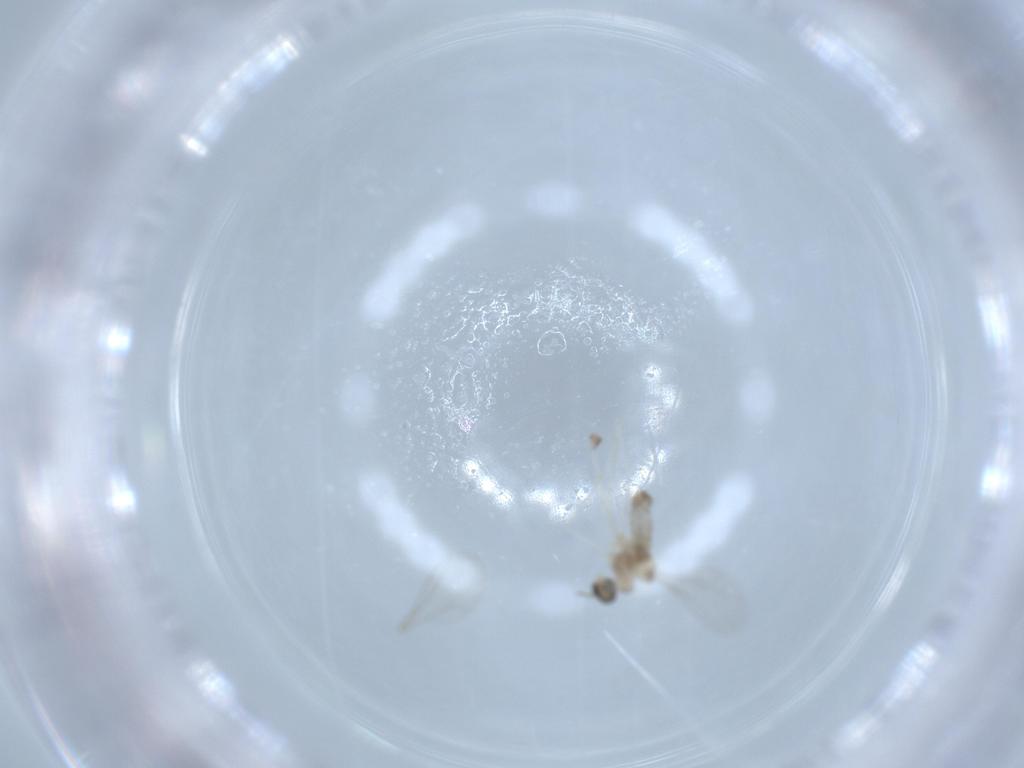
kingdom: Animalia
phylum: Arthropoda
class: Insecta
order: Diptera
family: Cecidomyiidae
